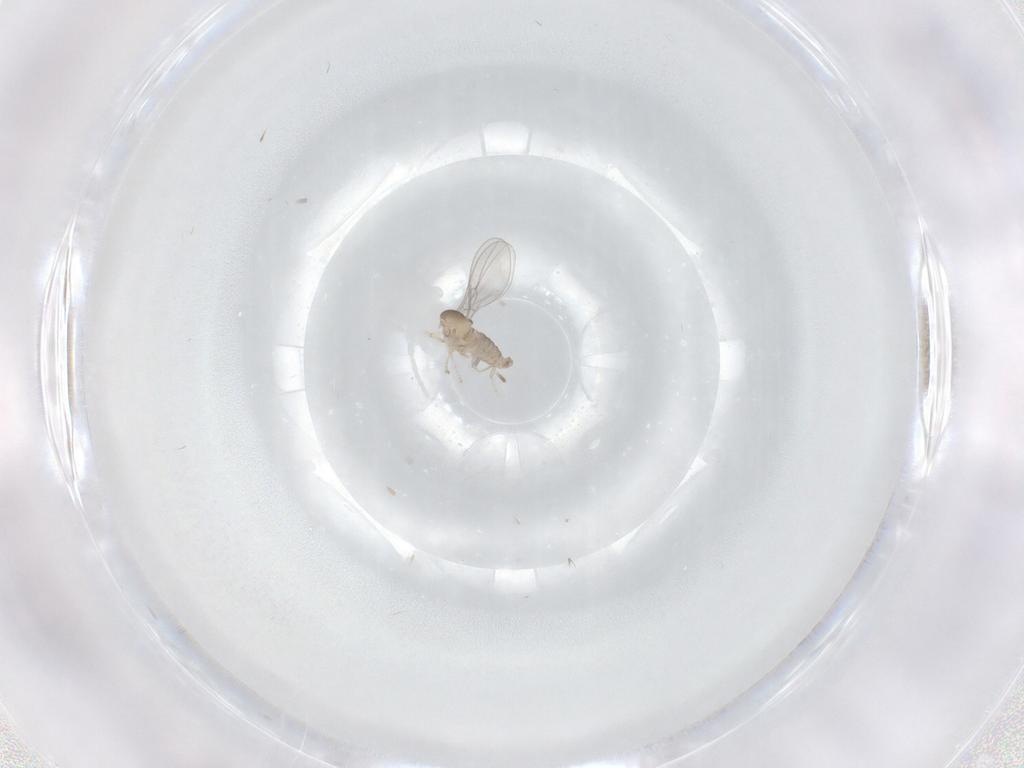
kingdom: Animalia
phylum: Arthropoda
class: Insecta
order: Diptera
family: Cecidomyiidae
